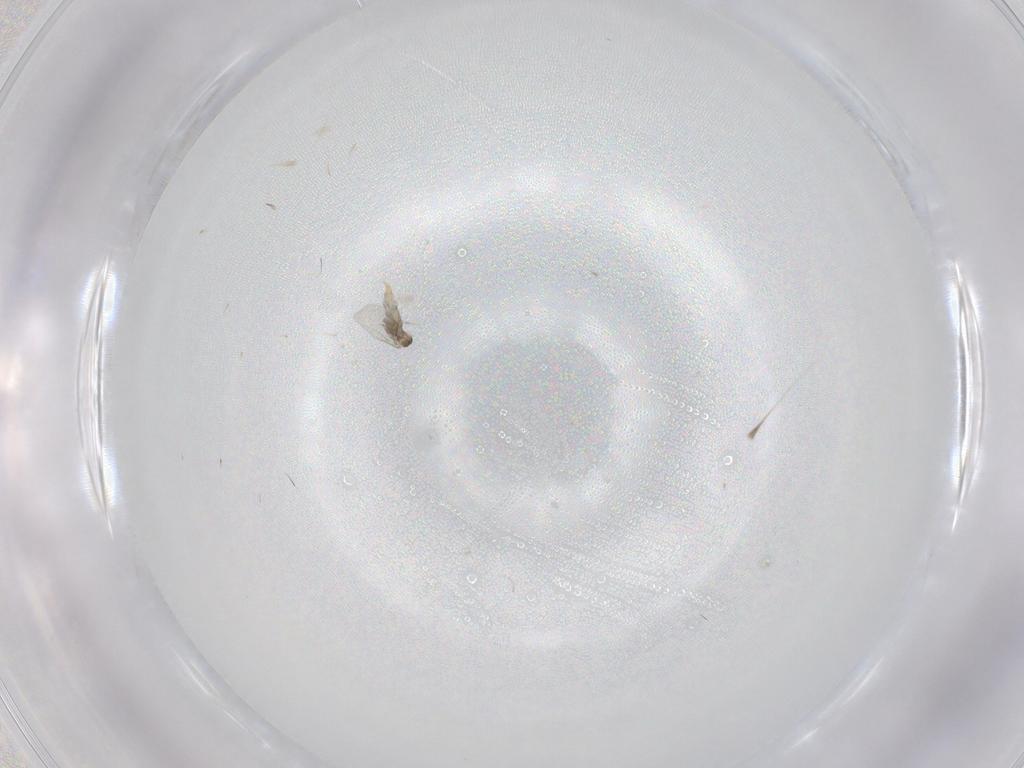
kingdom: Animalia
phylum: Arthropoda
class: Insecta
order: Diptera
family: Cecidomyiidae
